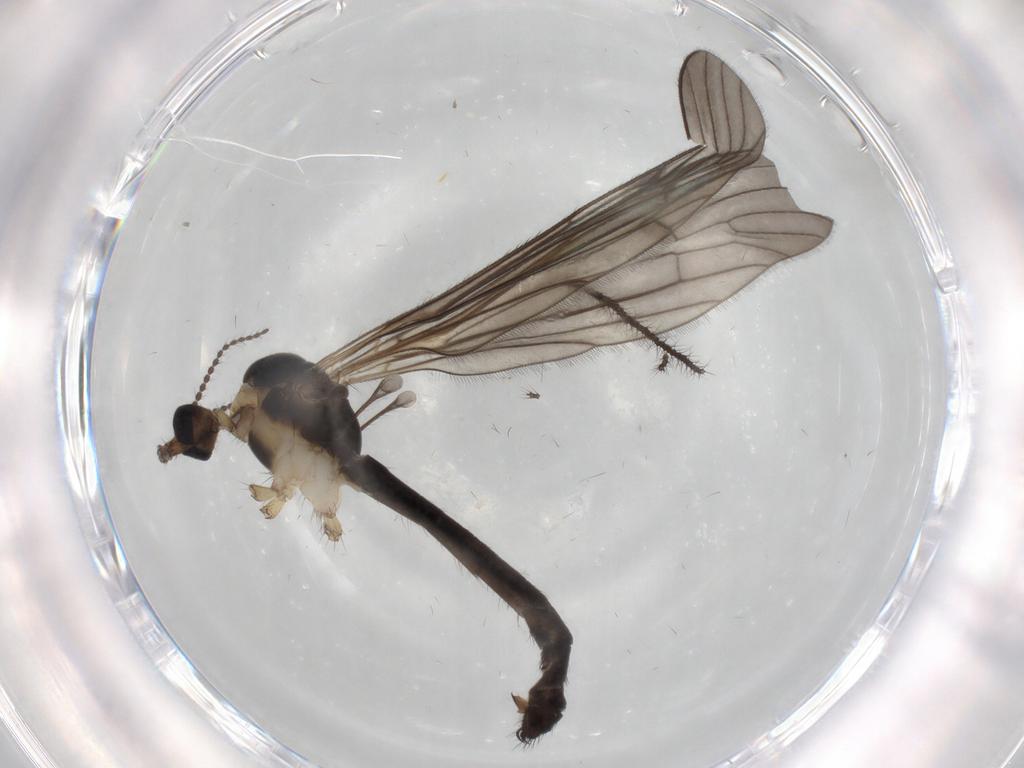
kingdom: Animalia
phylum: Arthropoda
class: Insecta
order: Diptera
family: Limoniidae
